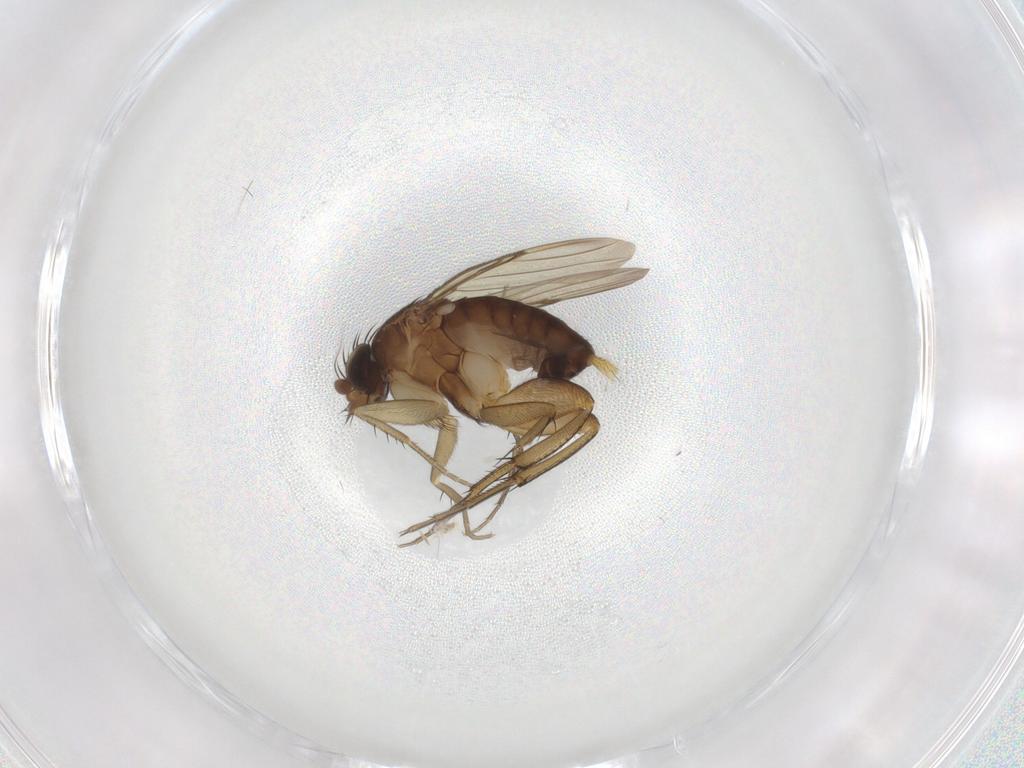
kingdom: Animalia
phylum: Arthropoda
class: Insecta
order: Diptera
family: Phoridae
